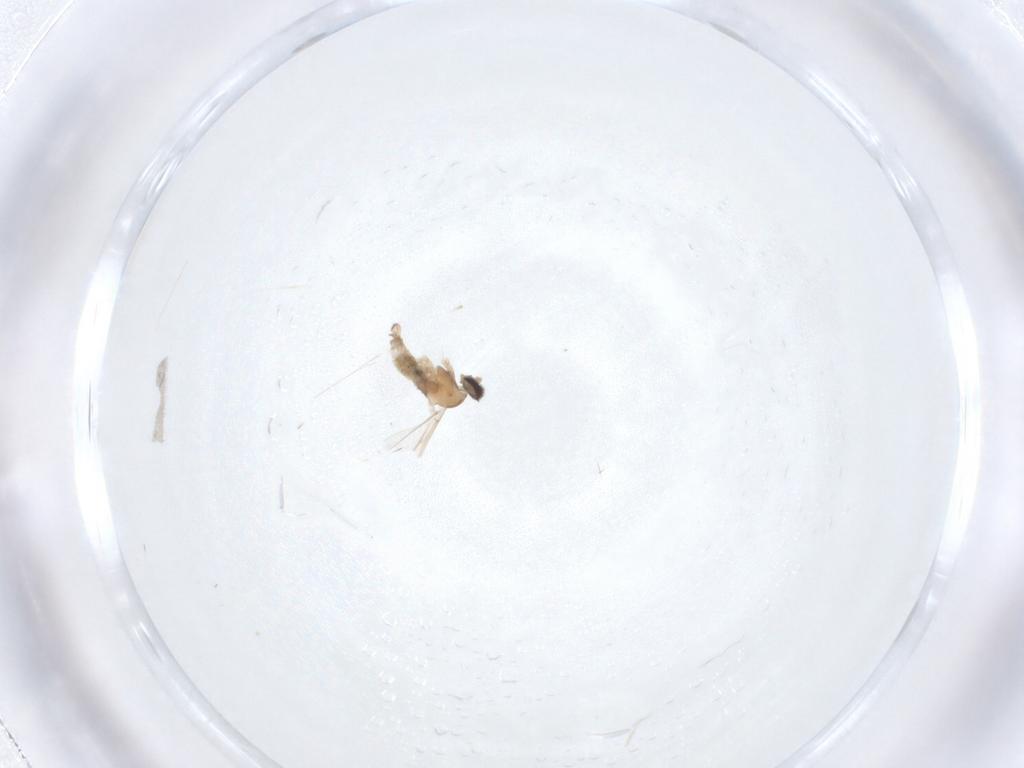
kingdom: Animalia
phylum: Arthropoda
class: Insecta
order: Diptera
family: Cecidomyiidae
